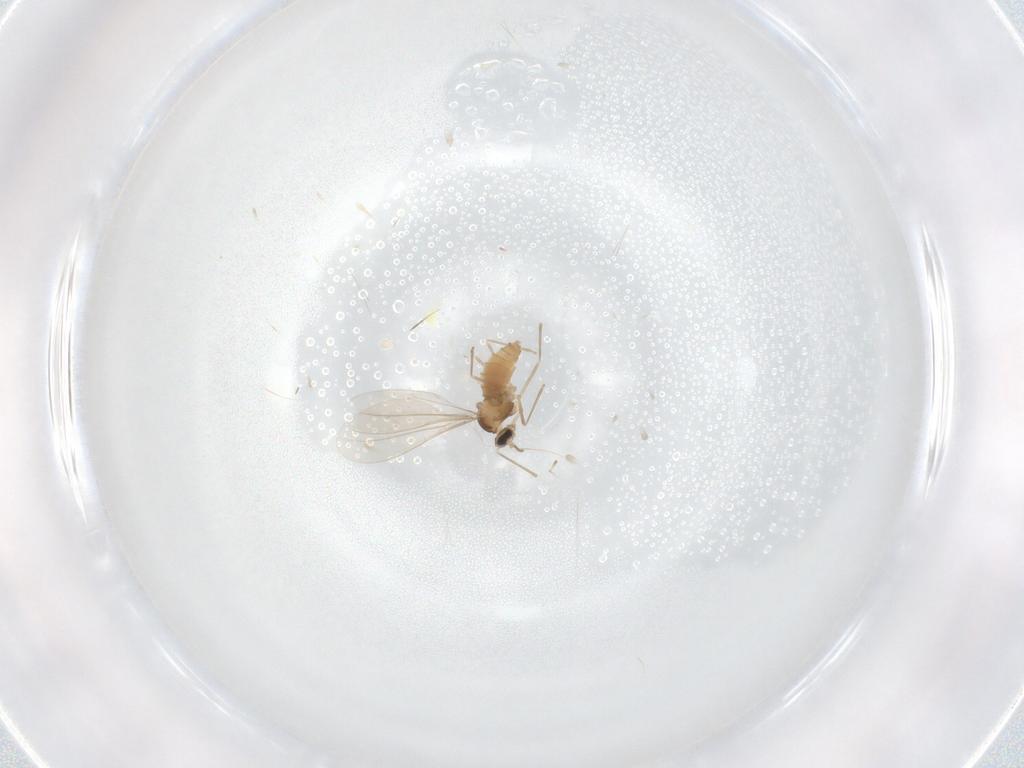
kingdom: Animalia
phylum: Arthropoda
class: Insecta
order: Diptera
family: Cecidomyiidae
